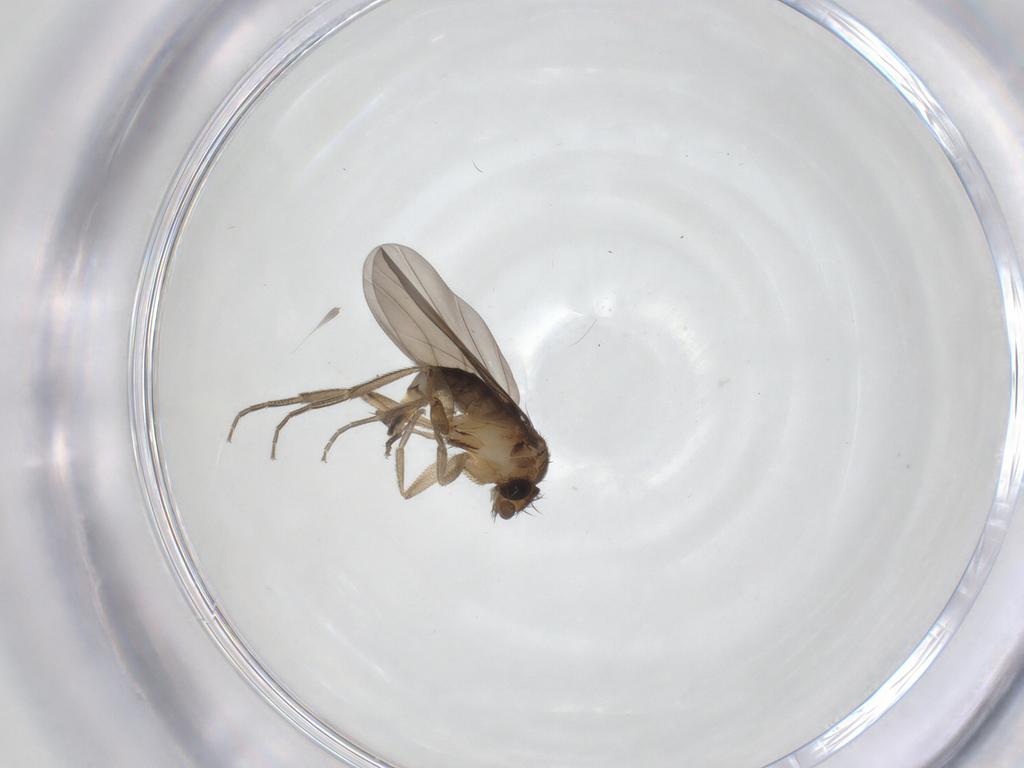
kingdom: Animalia
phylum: Arthropoda
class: Insecta
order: Diptera
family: Phoridae
